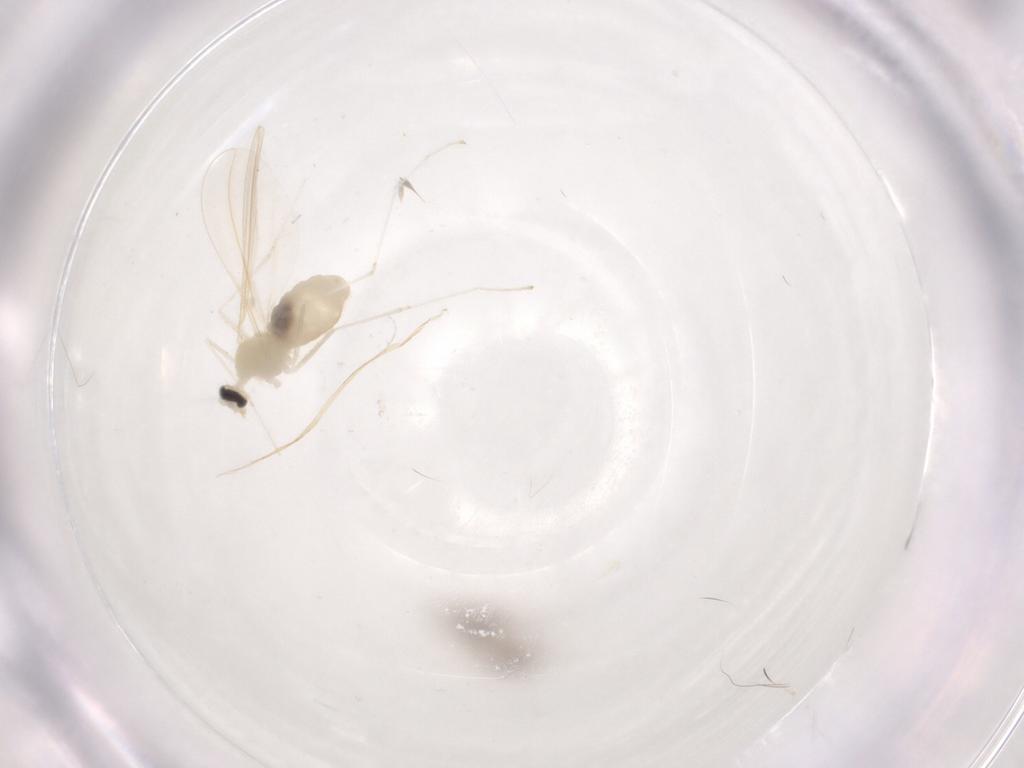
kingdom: Animalia
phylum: Arthropoda
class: Insecta
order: Diptera
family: Cecidomyiidae
